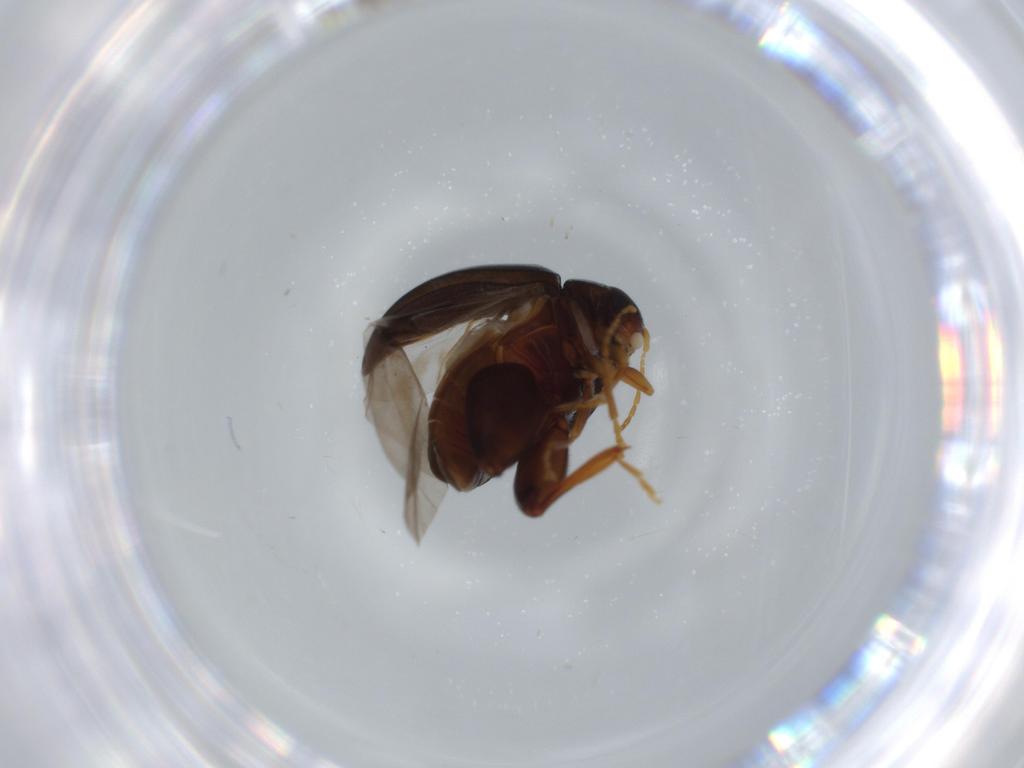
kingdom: Animalia
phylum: Arthropoda
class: Insecta
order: Coleoptera
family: Chrysomelidae
